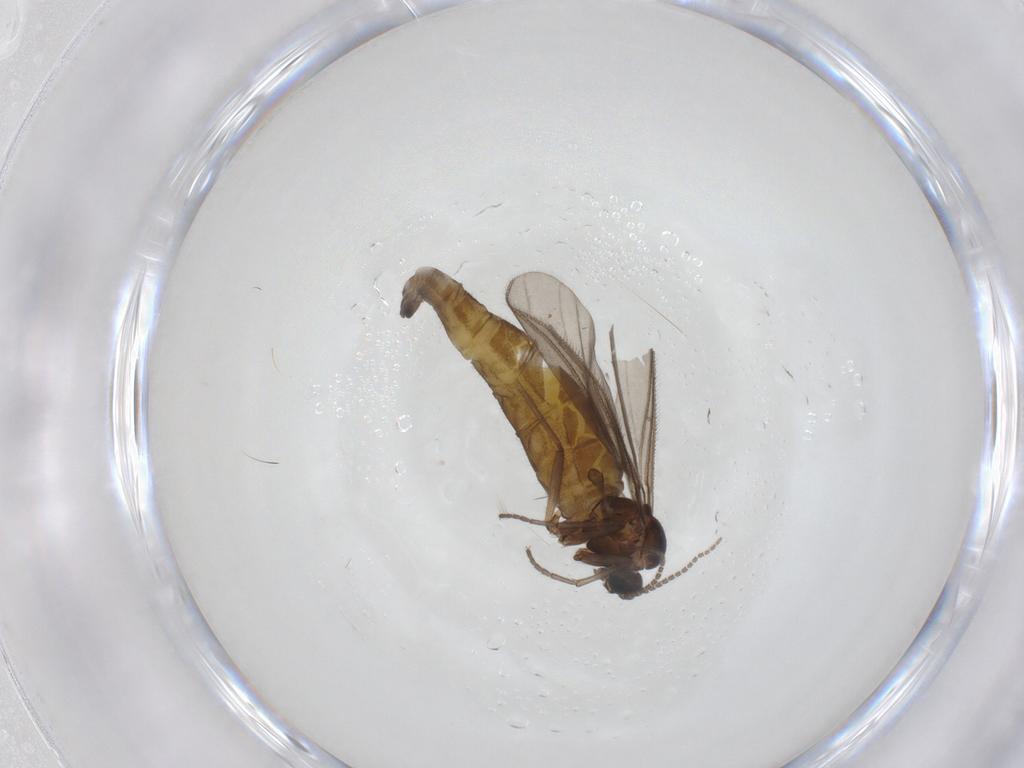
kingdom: Animalia
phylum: Arthropoda
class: Insecta
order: Diptera
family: Sciaridae
